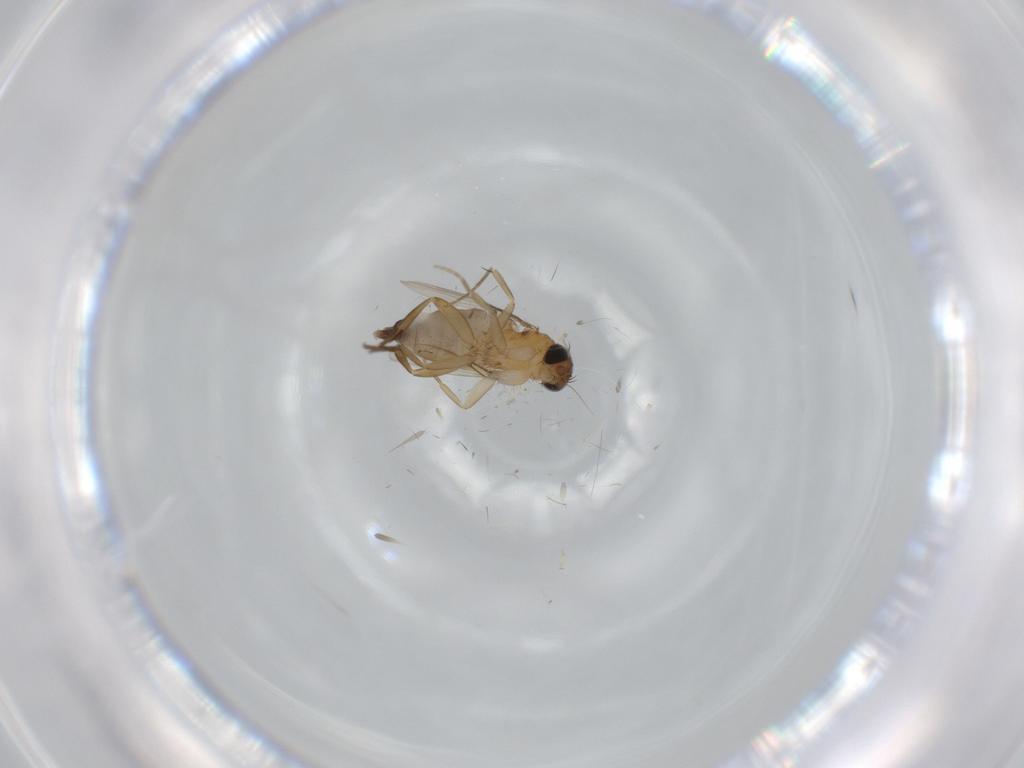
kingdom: Animalia
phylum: Arthropoda
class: Insecta
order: Diptera
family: Phoridae
